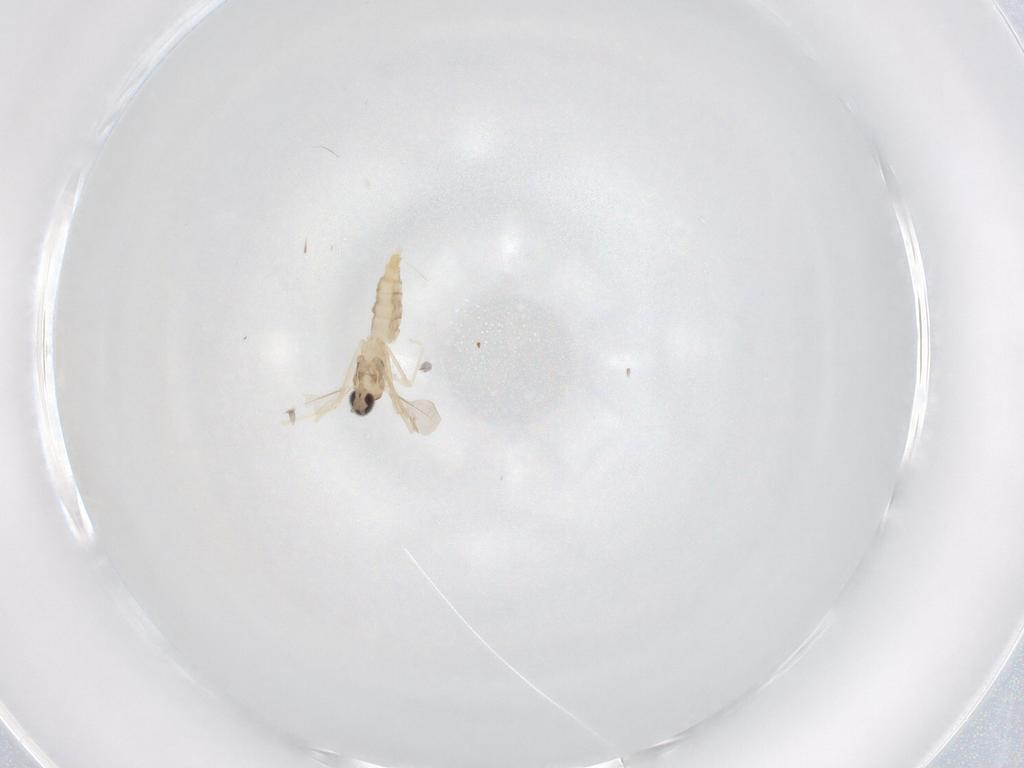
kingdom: Animalia
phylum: Arthropoda
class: Insecta
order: Diptera
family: Cecidomyiidae
